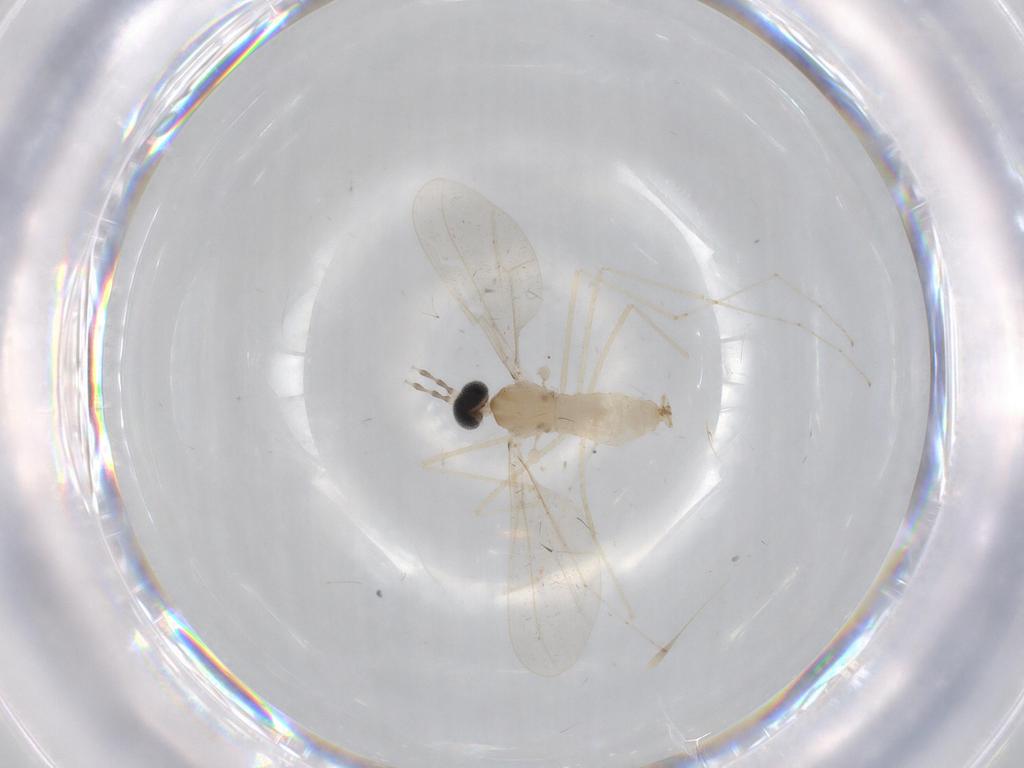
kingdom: Animalia
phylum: Arthropoda
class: Insecta
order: Diptera
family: Cecidomyiidae
